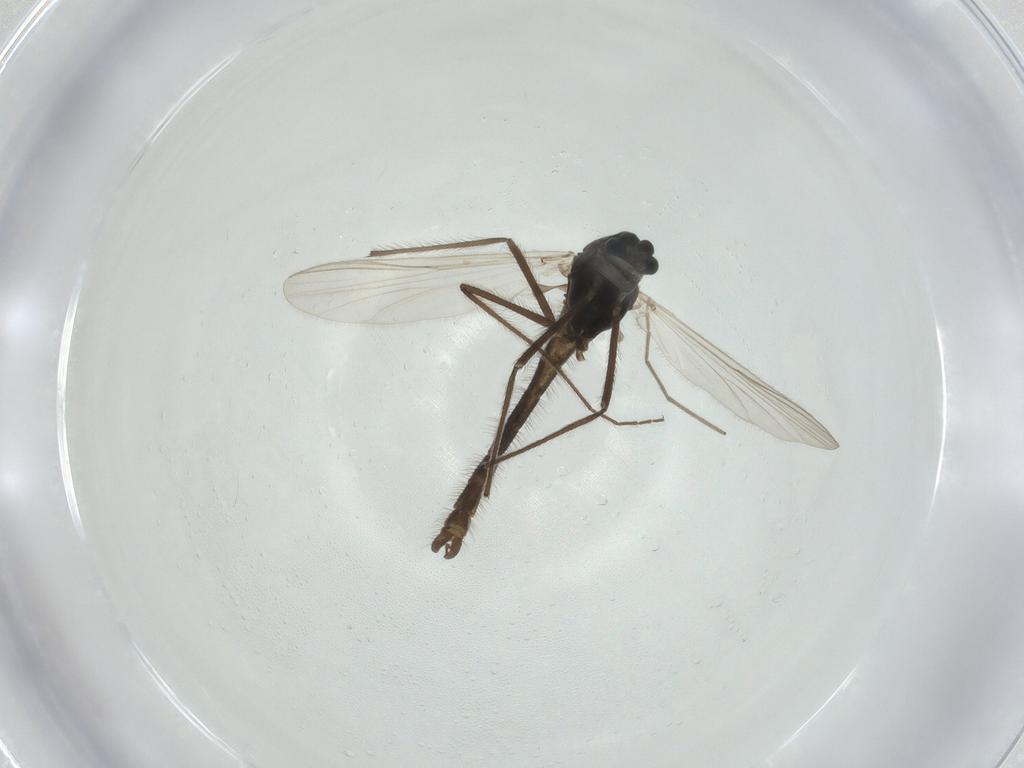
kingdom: Animalia
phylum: Arthropoda
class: Insecta
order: Diptera
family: Chironomidae
